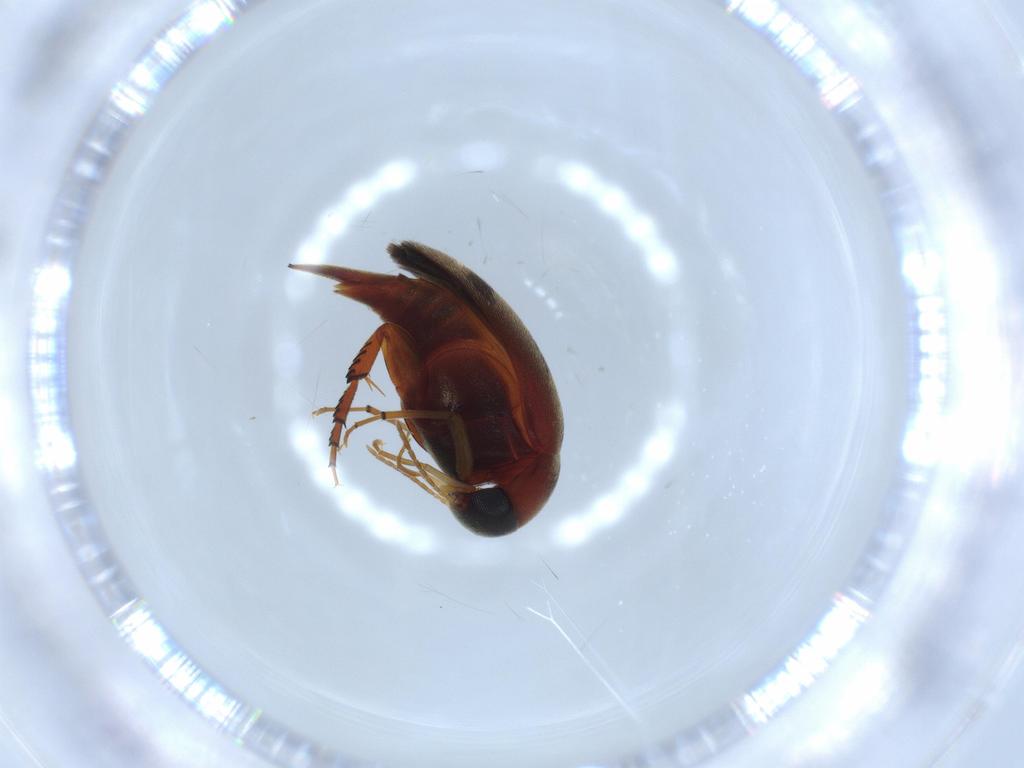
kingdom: Animalia
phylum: Arthropoda
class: Insecta
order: Coleoptera
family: Mordellidae
